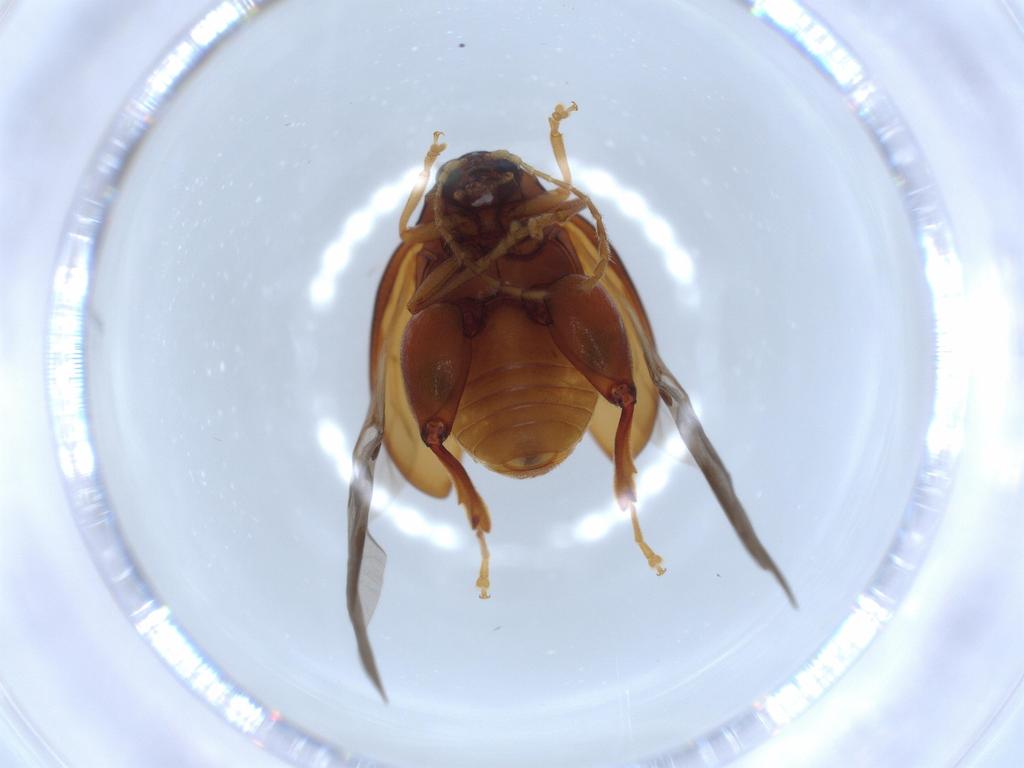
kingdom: Animalia
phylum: Arthropoda
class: Insecta
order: Coleoptera
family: Chrysomelidae
